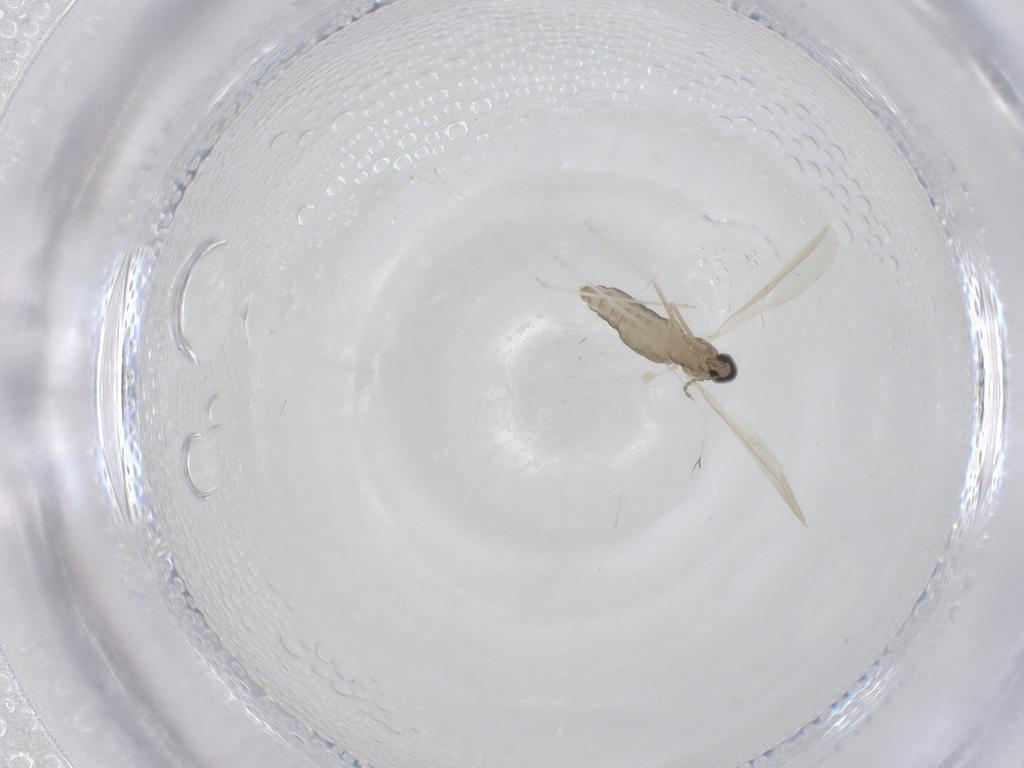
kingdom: Animalia
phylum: Arthropoda
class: Insecta
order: Diptera
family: Cecidomyiidae
